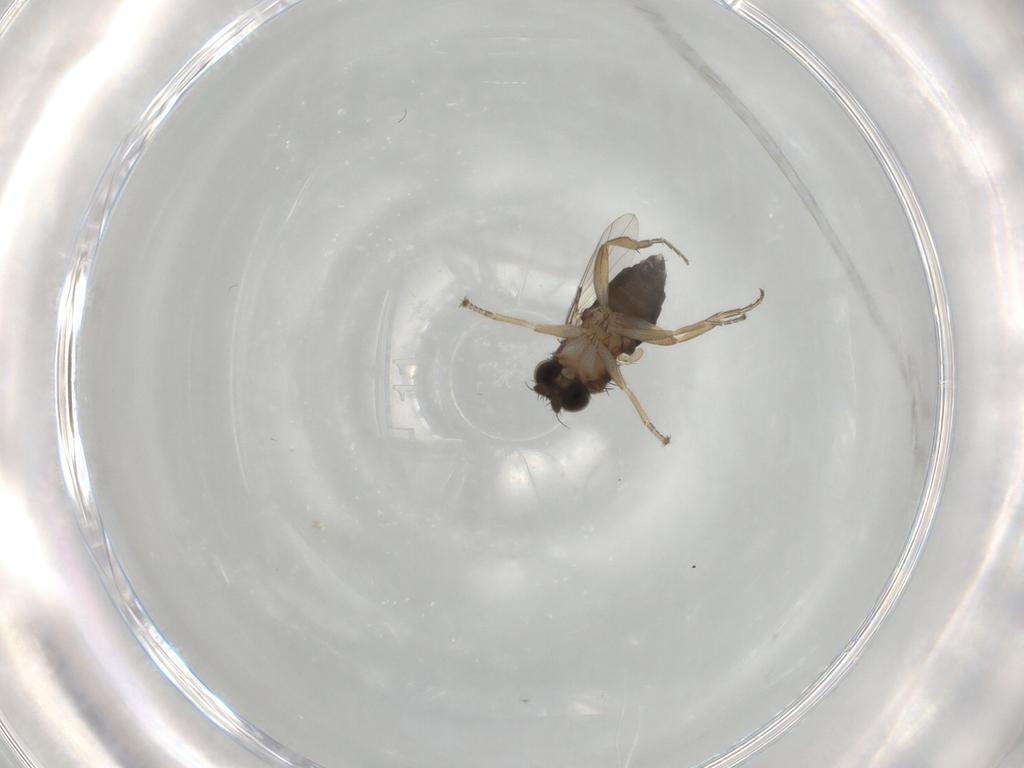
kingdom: Animalia
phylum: Arthropoda
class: Insecta
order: Diptera
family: Phoridae
